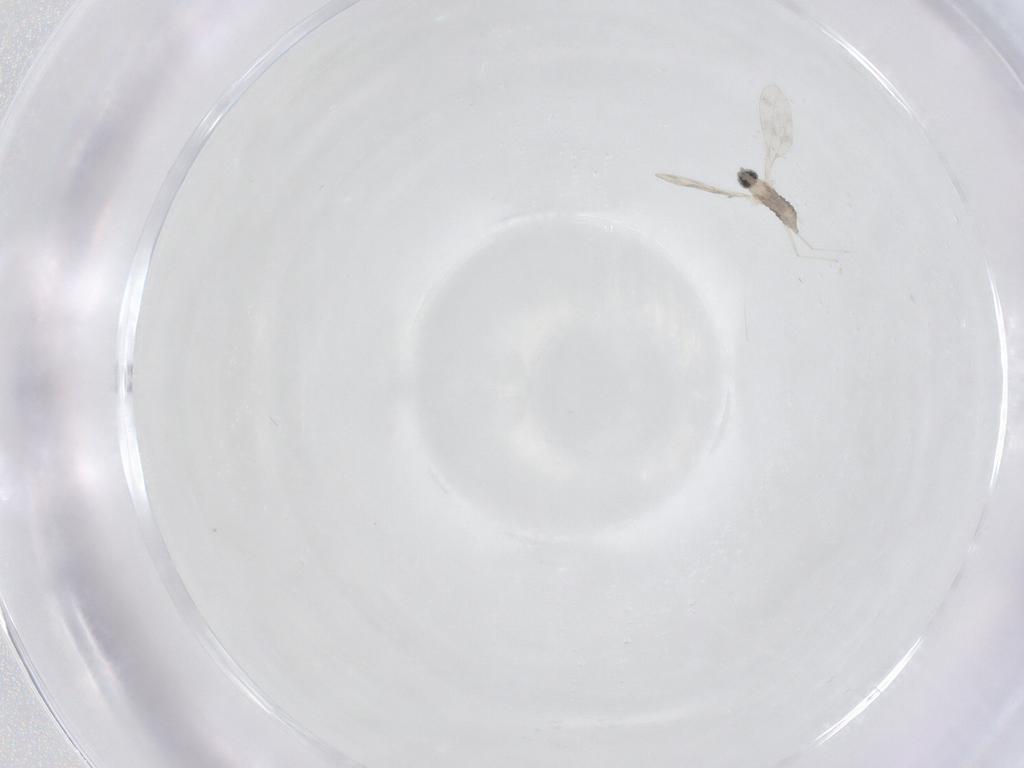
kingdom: Animalia
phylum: Arthropoda
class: Insecta
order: Diptera
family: Cecidomyiidae
